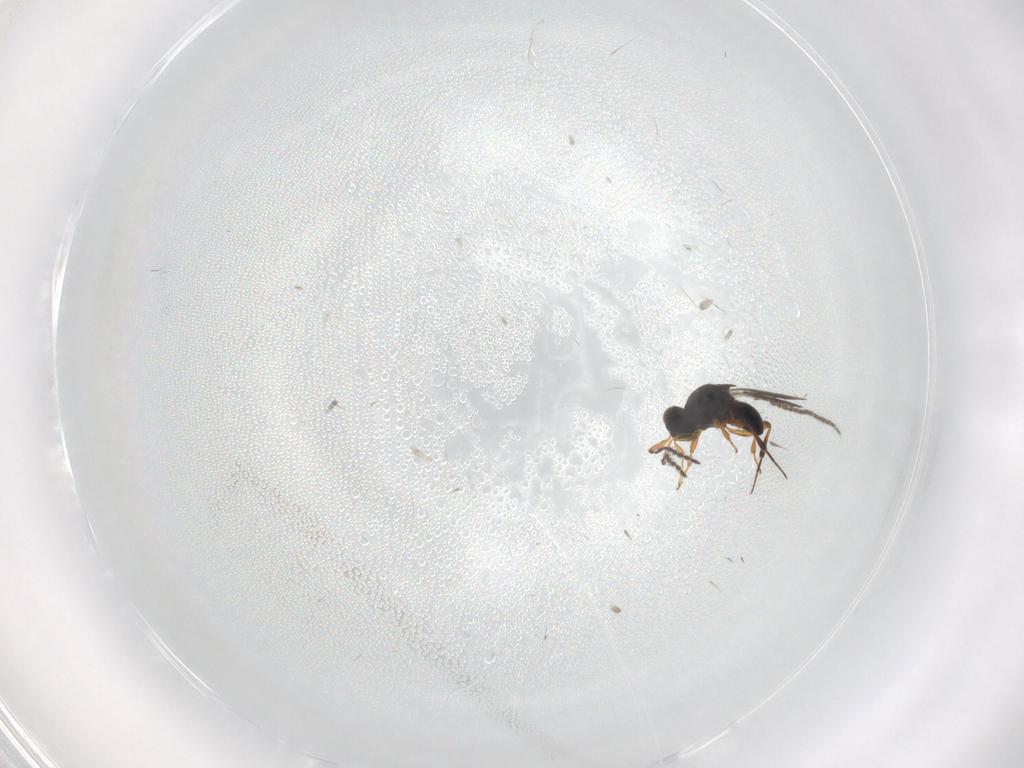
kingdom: Animalia
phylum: Arthropoda
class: Insecta
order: Hymenoptera
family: Platygastridae
